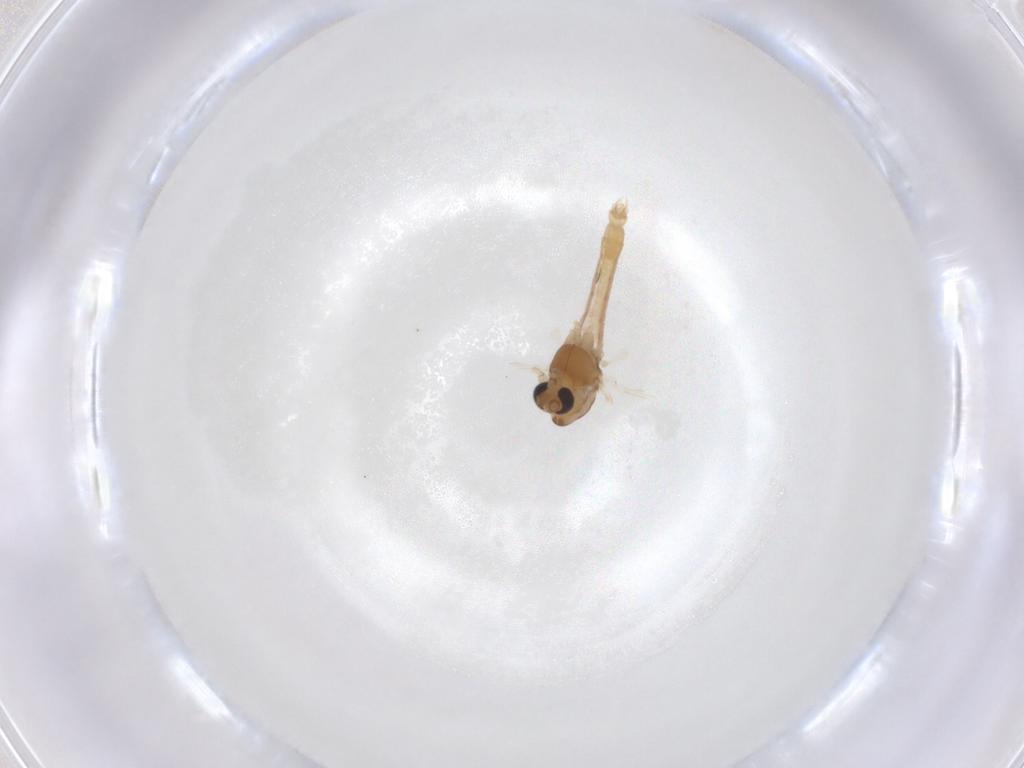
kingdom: Animalia
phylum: Arthropoda
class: Insecta
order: Diptera
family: Chironomidae
